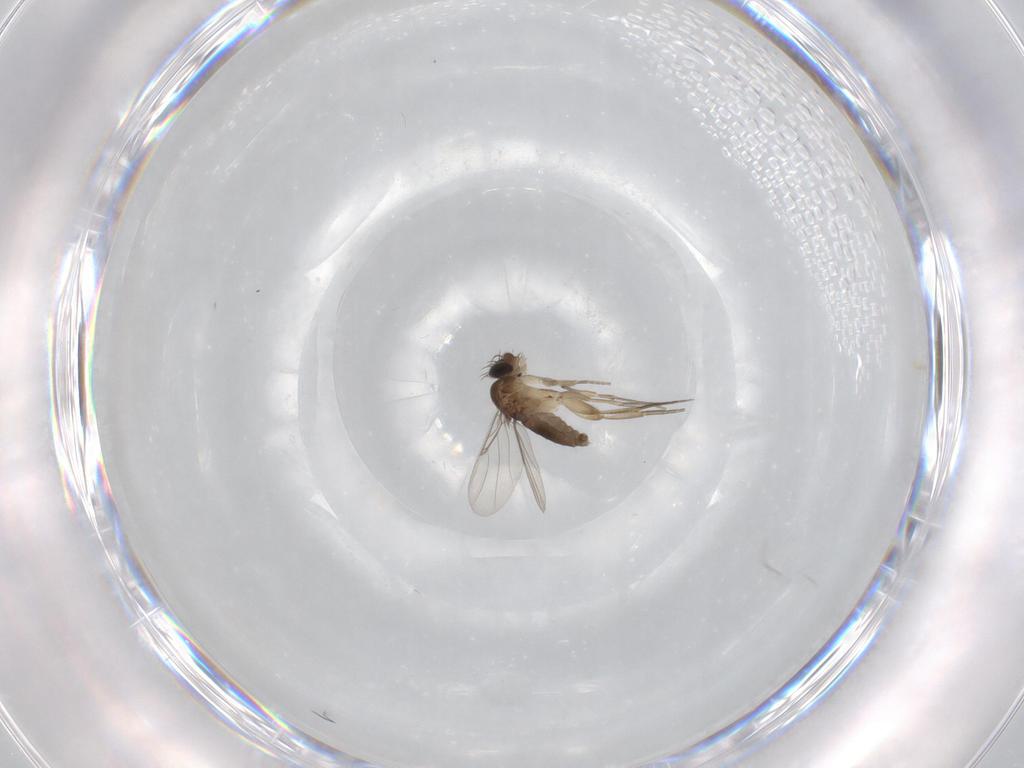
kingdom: Animalia
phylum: Arthropoda
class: Insecta
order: Diptera
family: Phoridae
